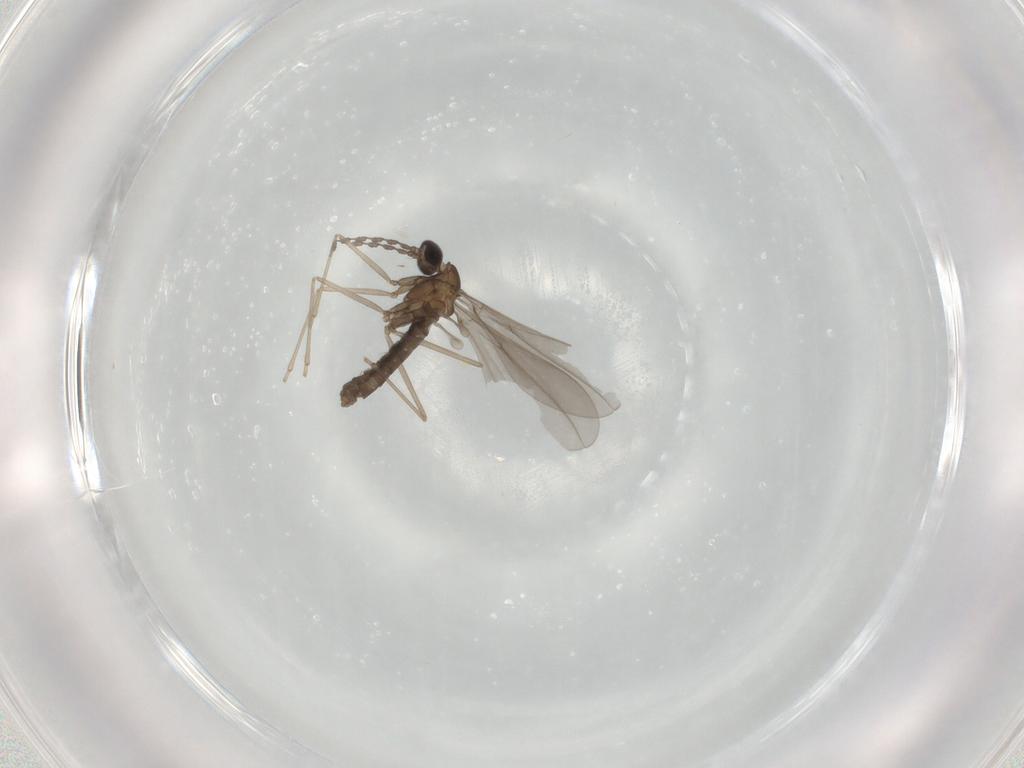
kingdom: Animalia
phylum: Arthropoda
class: Insecta
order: Diptera
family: Cecidomyiidae
